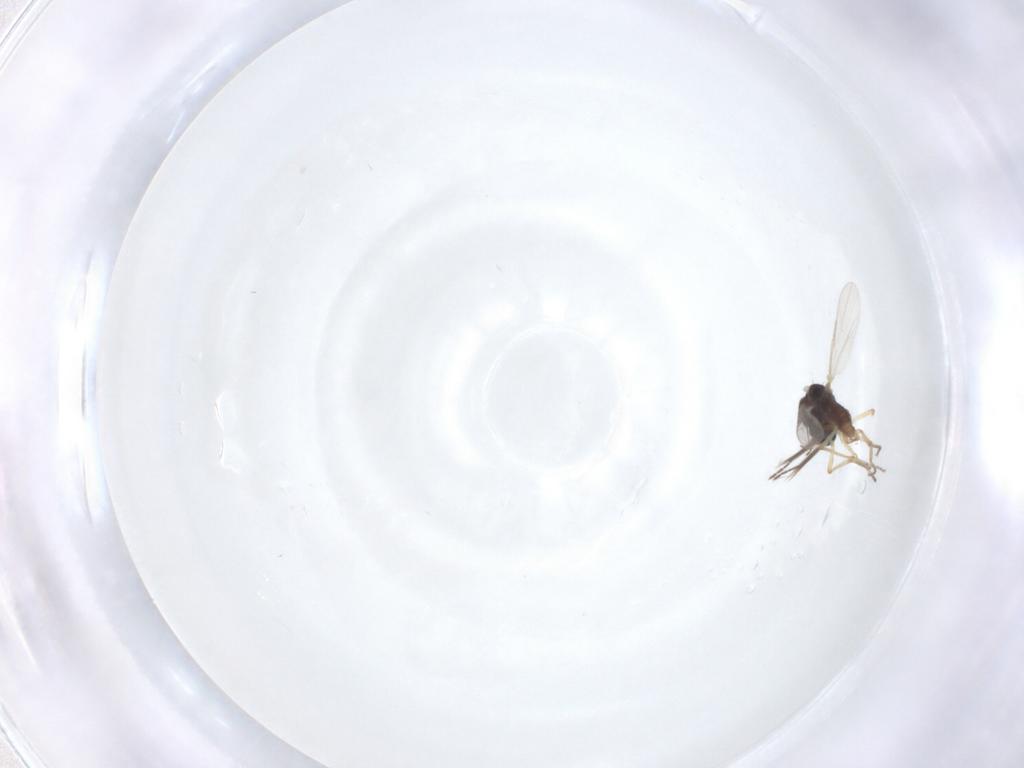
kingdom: Animalia
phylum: Arthropoda
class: Insecta
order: Diptera
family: Ceratopogonidae
